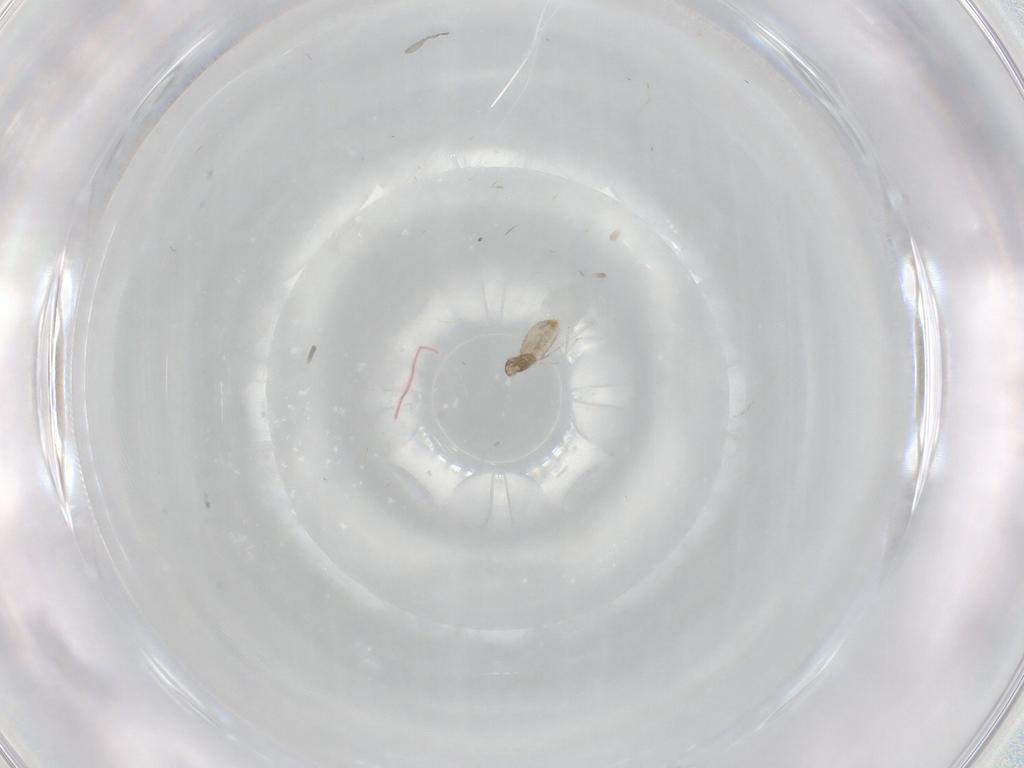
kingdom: Animalia
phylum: Arthropoda
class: Insecta
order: Diptera
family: Cecidomyiidae
